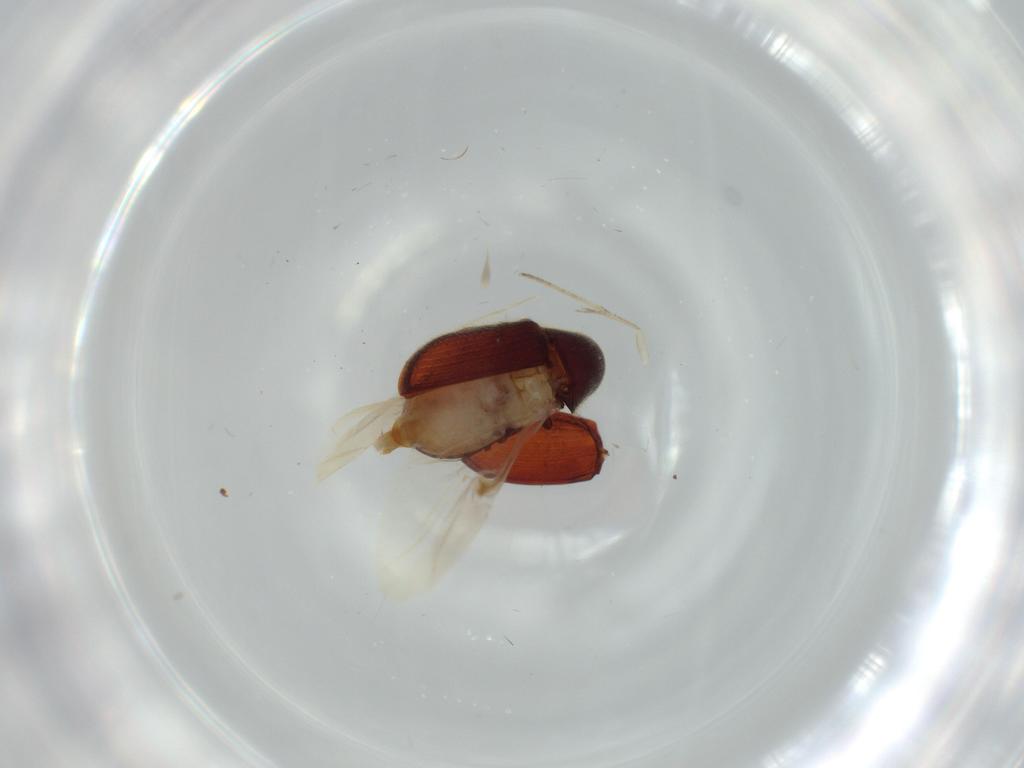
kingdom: Animalia
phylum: Arthropoda
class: Insecta
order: Coleoptera
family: Ptinidae
